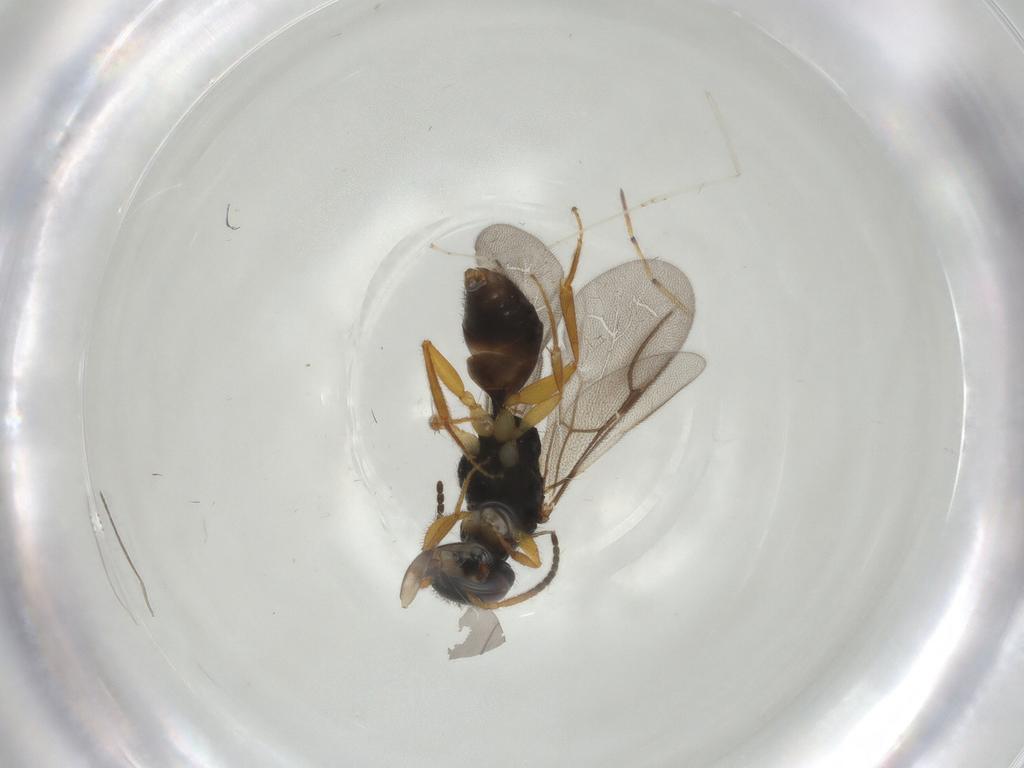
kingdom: Animalia
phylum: Arthropoda
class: Insecta
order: Hymenoptera
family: Bethylidae
